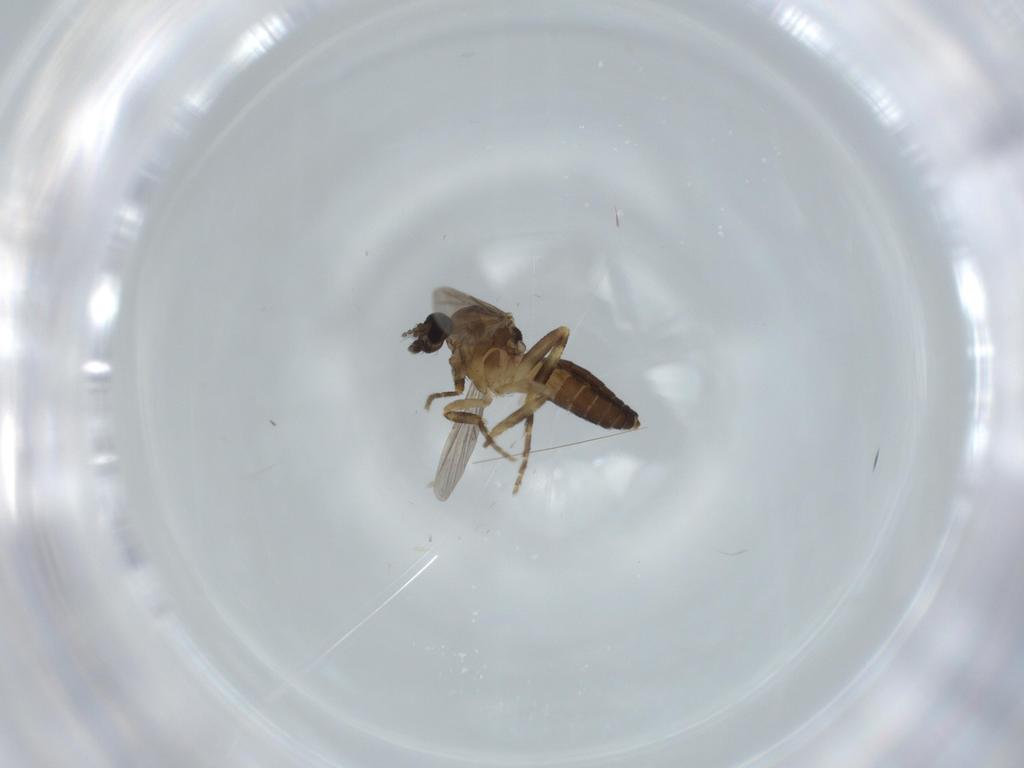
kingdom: Animalia
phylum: Arthropoda
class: Insecta
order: Diptera
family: Ceratopogonidae
